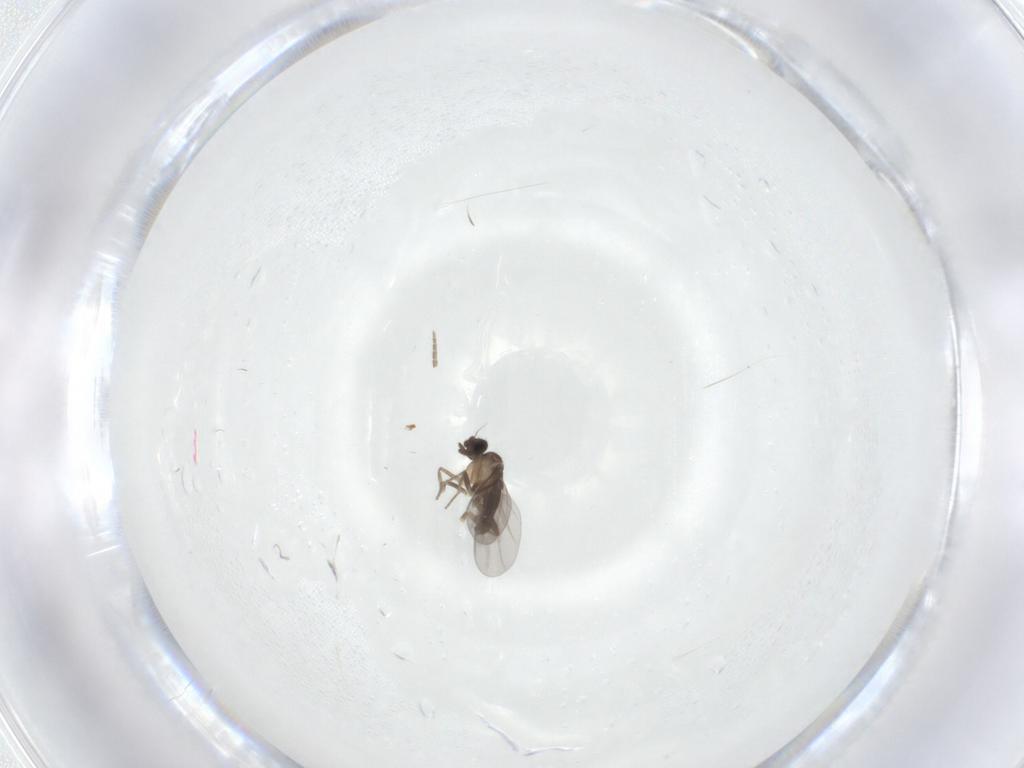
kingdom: Animalia
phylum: Arthropoda
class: Insecta
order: Diptera
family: Sciaridae
